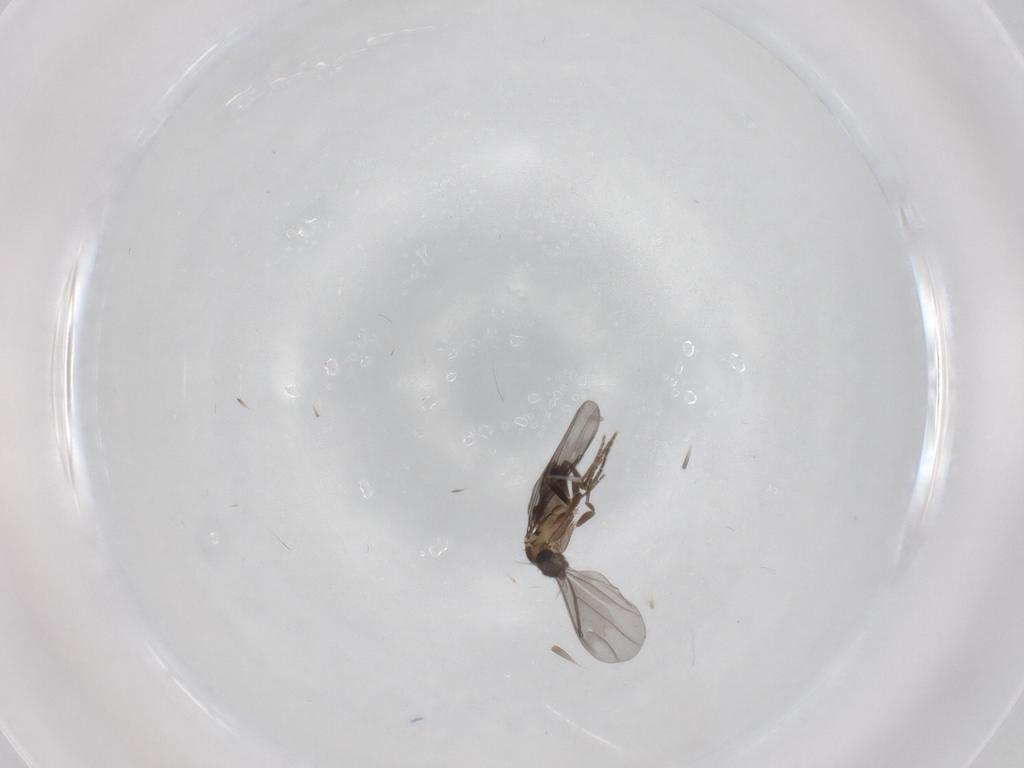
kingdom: Animalia
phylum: Arthropoda
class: Insecta
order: Diptera
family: Phoridae
